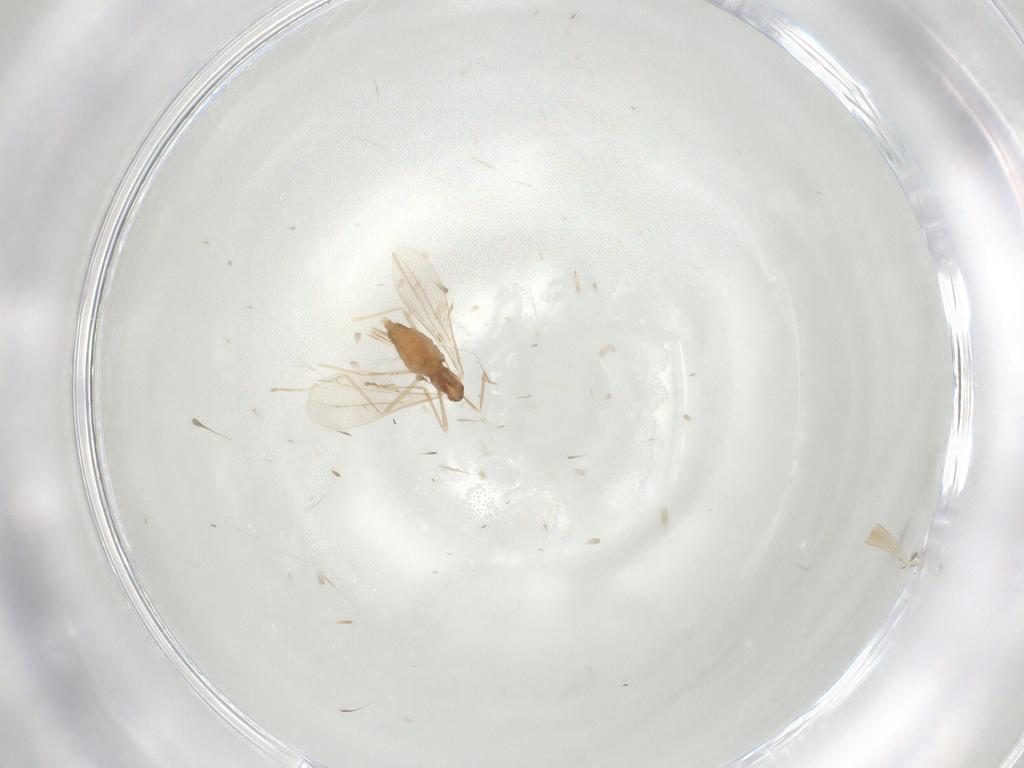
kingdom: Animalia
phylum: Arthropoda
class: Insecta
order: Diptera
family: Cecidomyiidae
